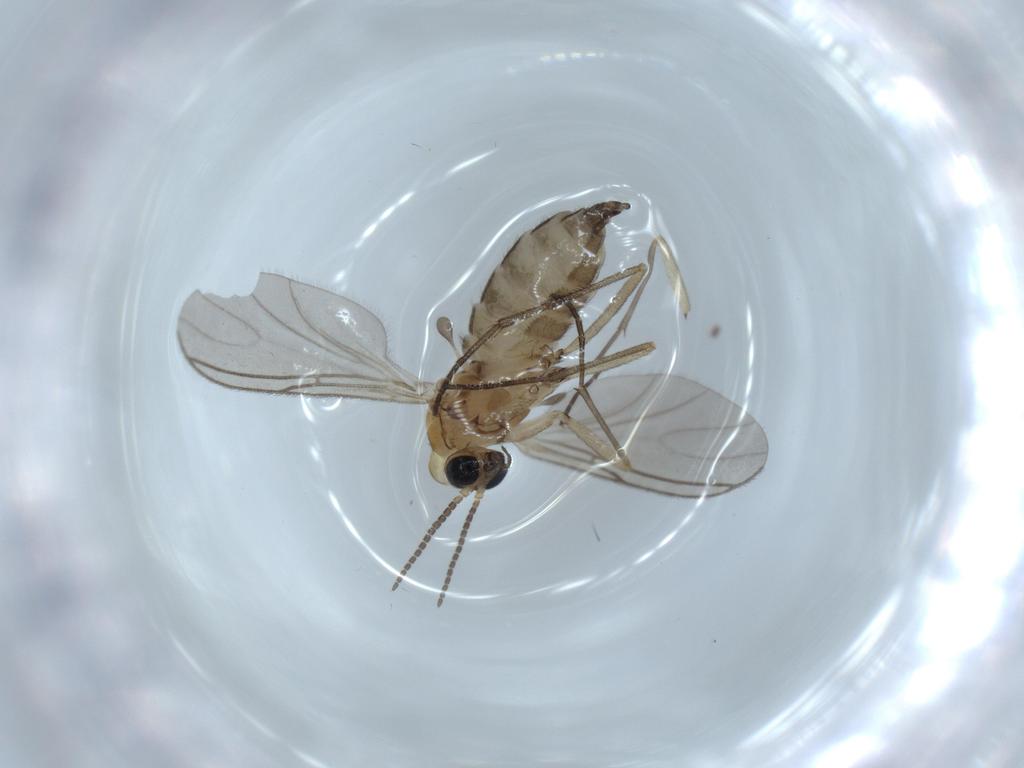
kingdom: Animalia
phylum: Arthropoda
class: Insecta
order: Diptera
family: Sciaridae
